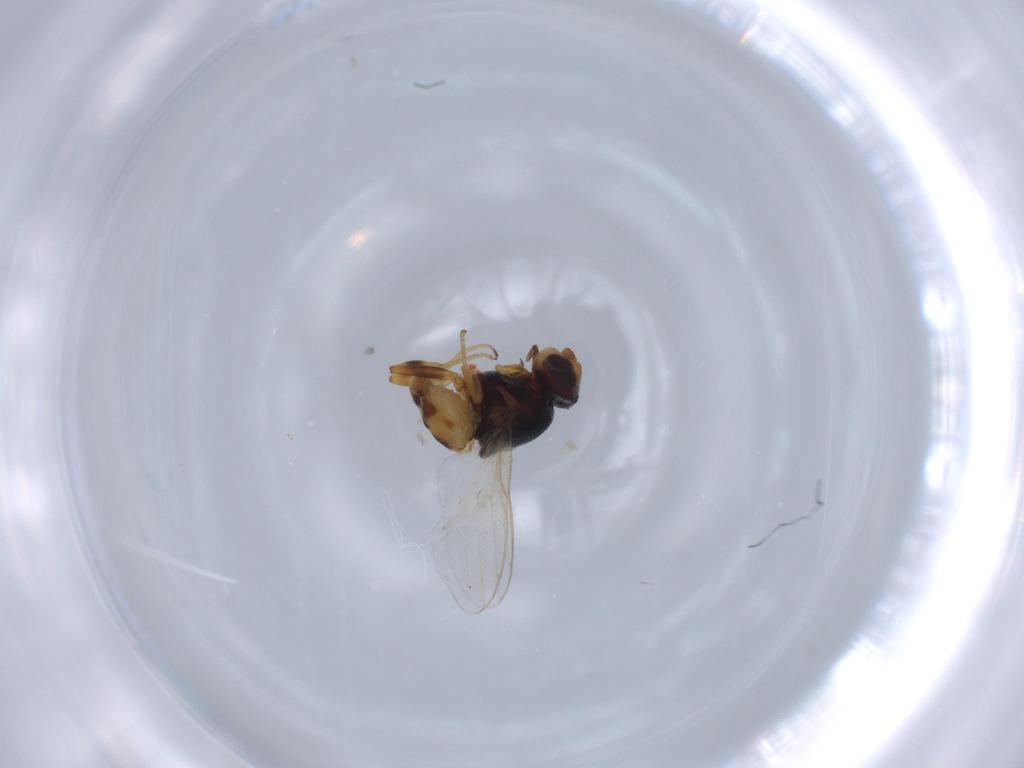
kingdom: Animalia
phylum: Arthropoda
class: Insecta
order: Diptera
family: Chloropidae
